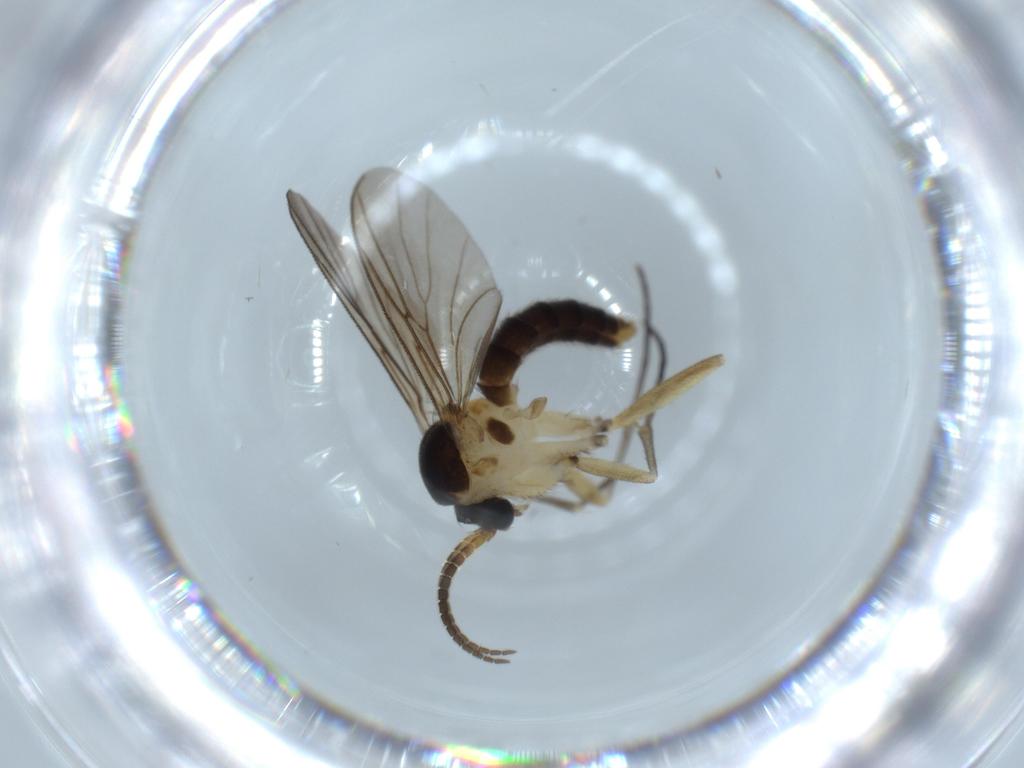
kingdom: Animalia
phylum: Arthropoda
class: Insecta
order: Diptera
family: Mycetophilidae
